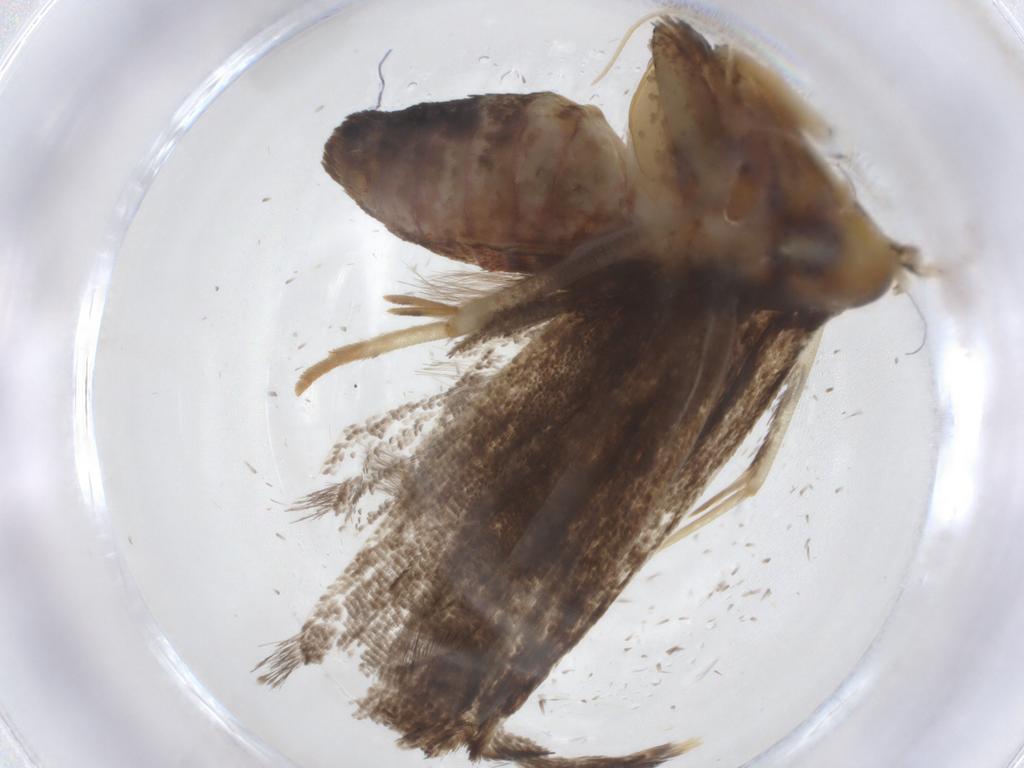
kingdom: Animalia
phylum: Arthropoda
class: Insecta
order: Lepidoptera
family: Lecithoceridae
